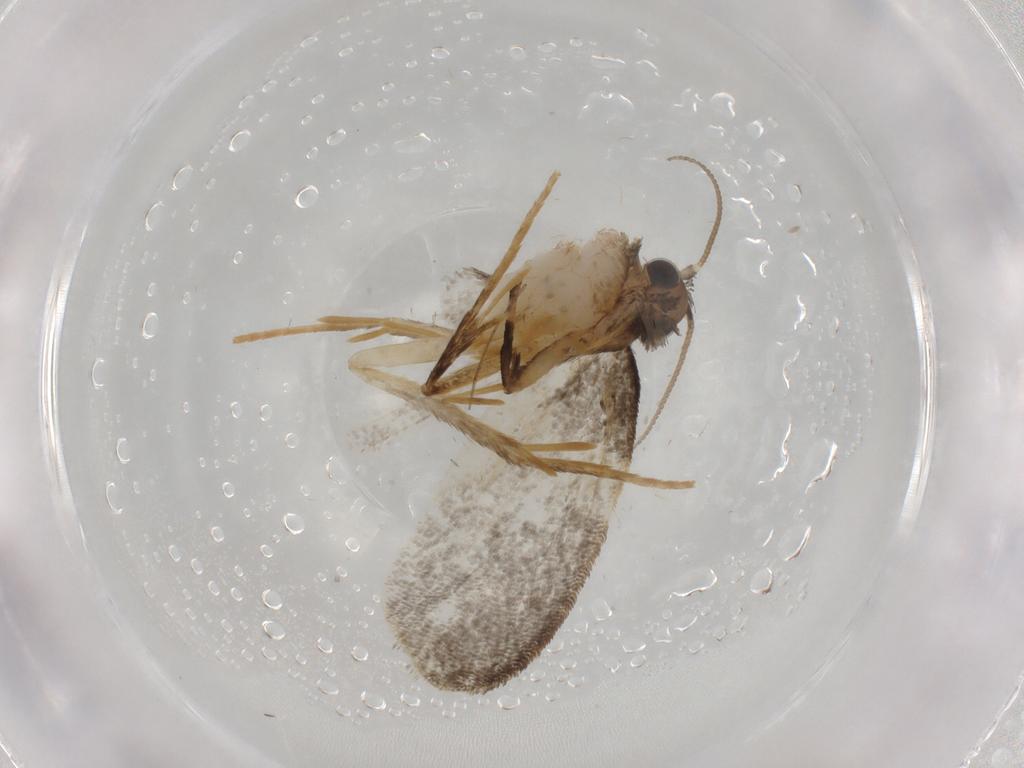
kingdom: Animalia
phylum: Arthropoda
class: Insecta
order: Lepidoptera
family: Psychidae
